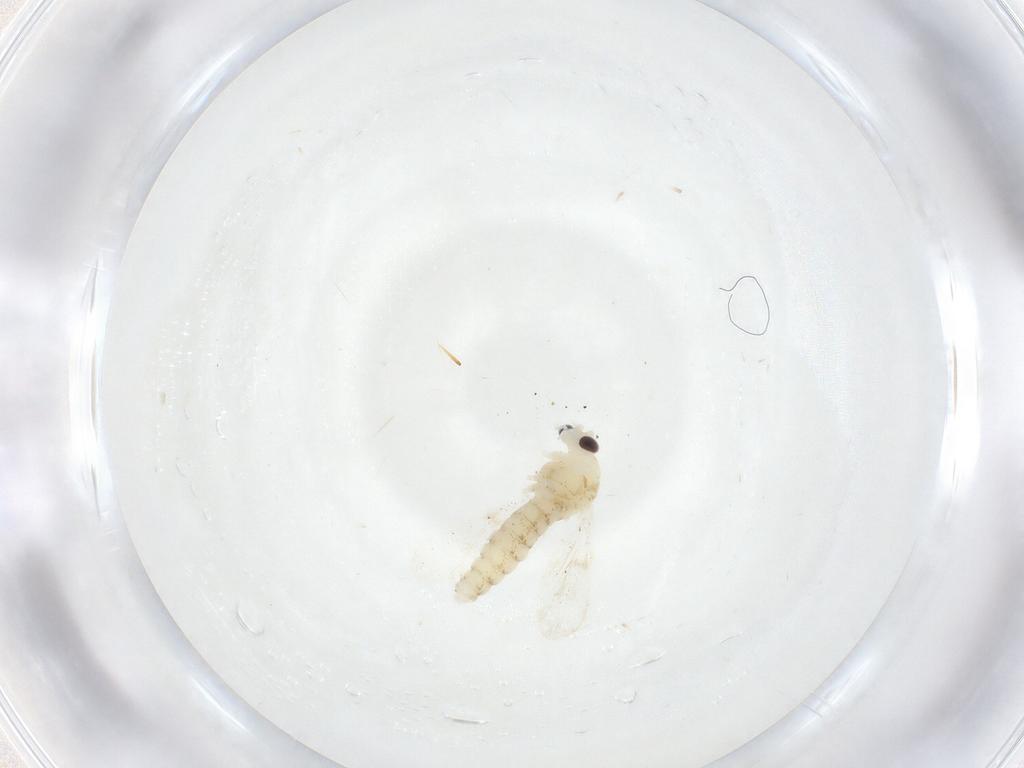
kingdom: Animalia
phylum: Arthropoda
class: Insecta
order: Diptera
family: Chironomidae
